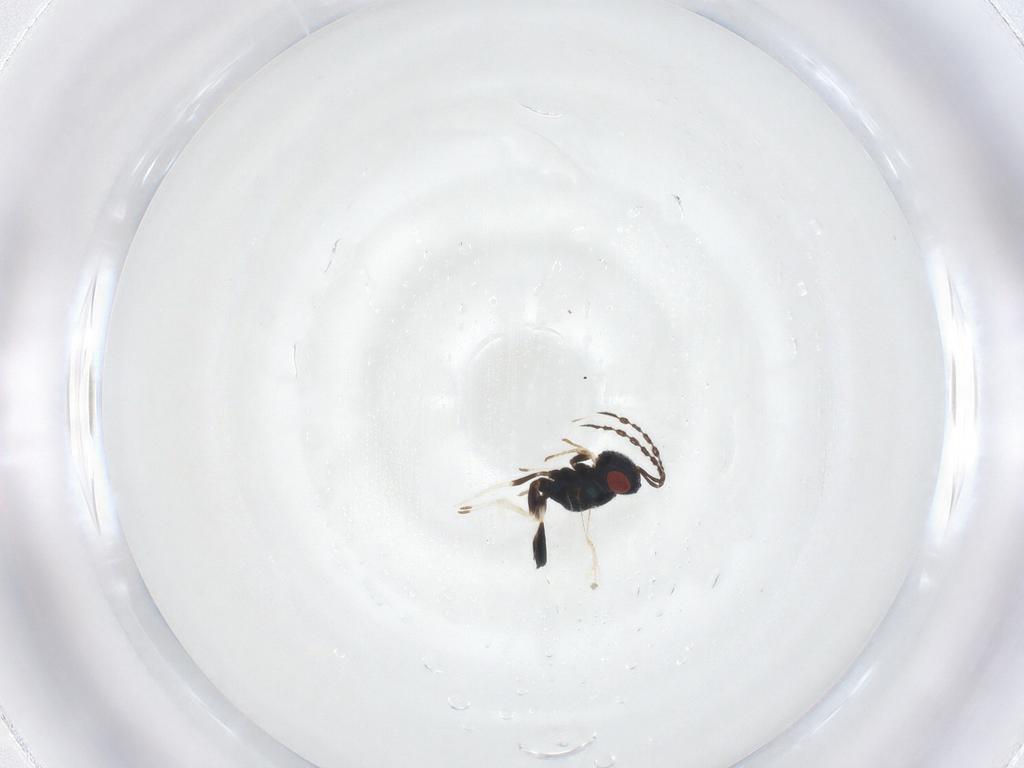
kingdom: Animalia
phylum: Arthropoda
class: Insecta
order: Hymenoptera
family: Pteromalidae
